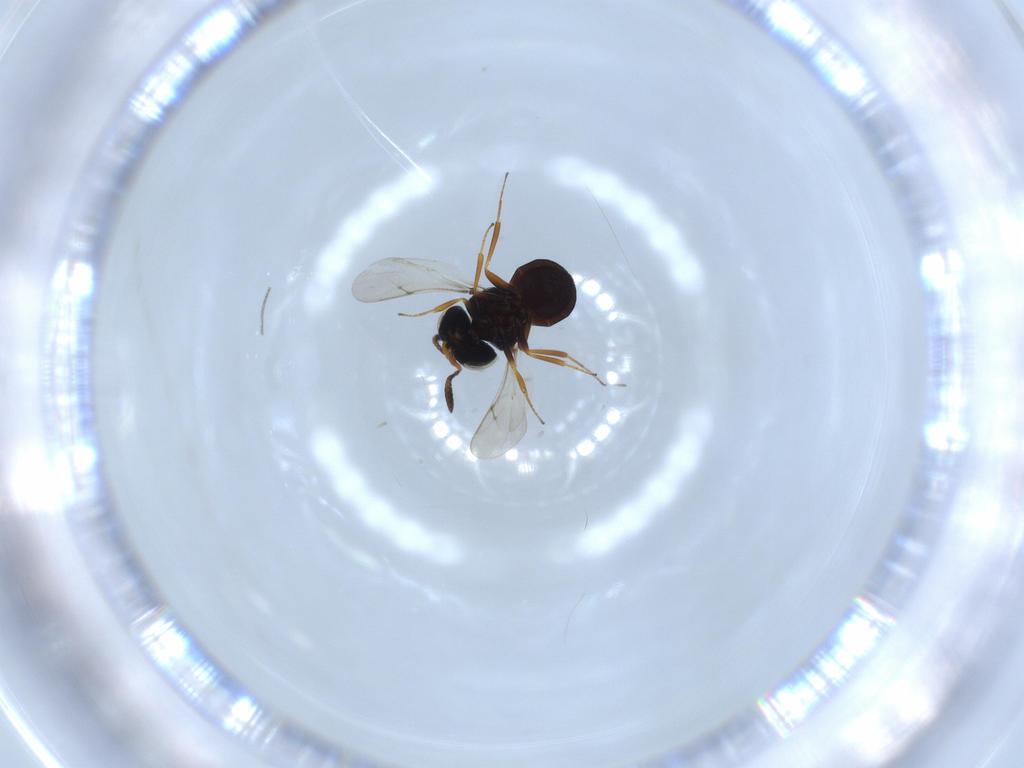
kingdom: Animalia
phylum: Arthropoda
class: Insecta
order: Hymenoptera
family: Scelionidae
